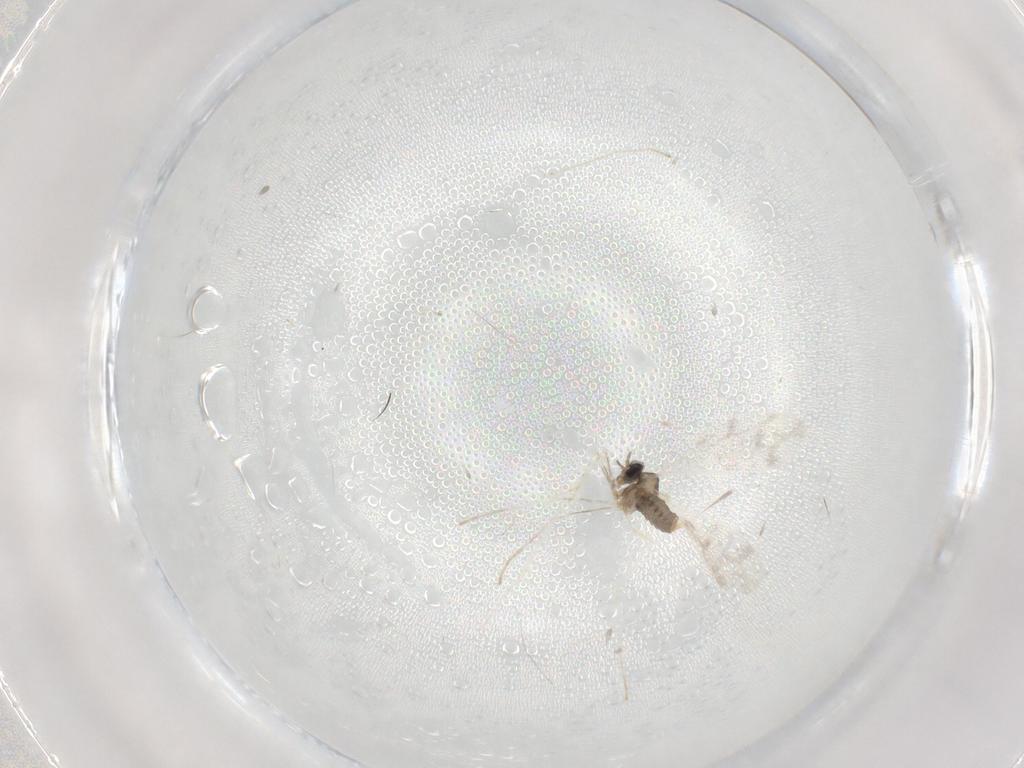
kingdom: Animalia
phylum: Arthropoda
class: Insecta
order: Diptera
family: Cecidomyiidae
